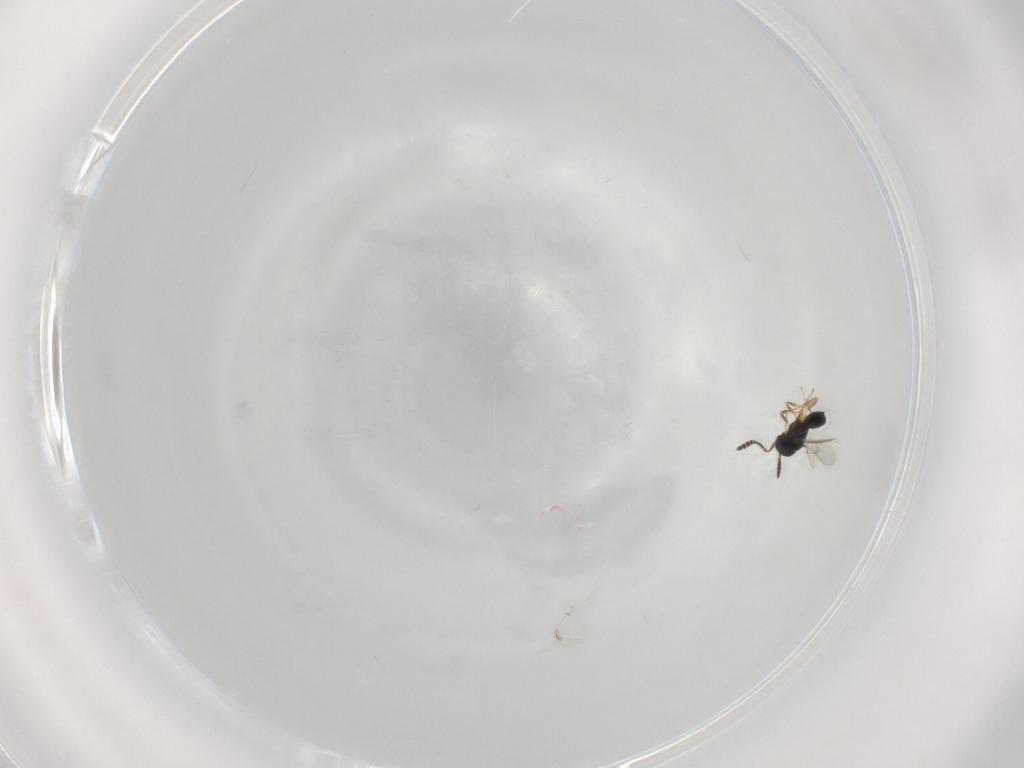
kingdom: Animalia
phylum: Arthropoda
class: Insecta
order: Hymenoptera
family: Scelionidae
